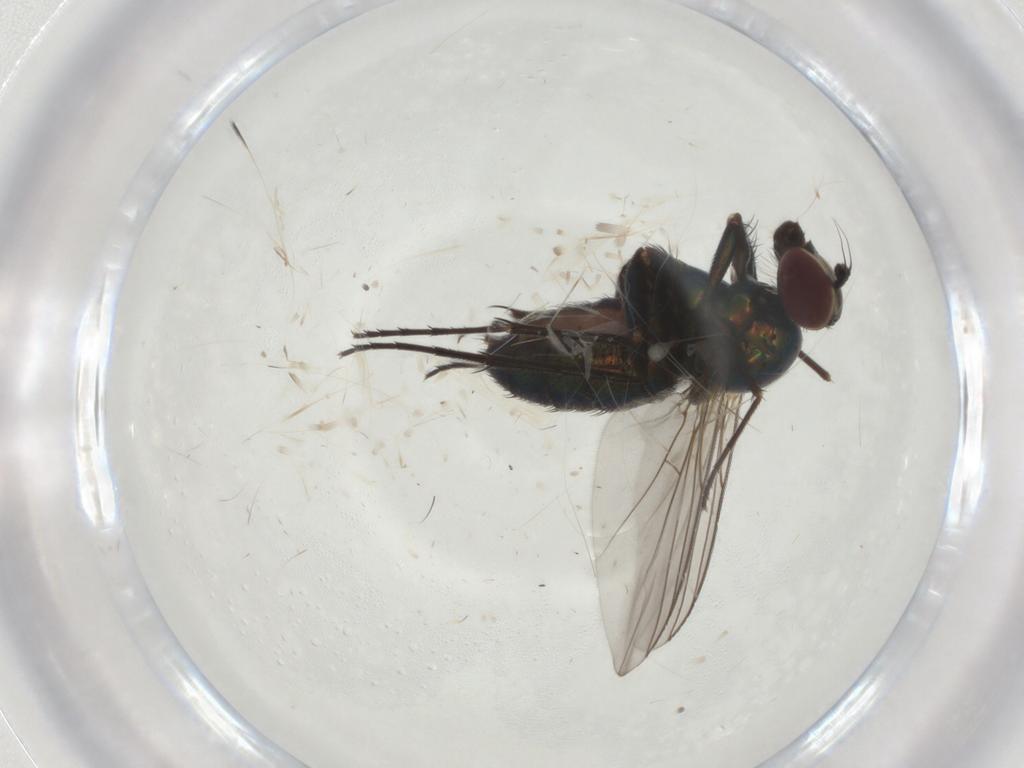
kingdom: Animalia
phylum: Arthropoda
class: Insecta
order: Diptera
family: Dolichopodidae
